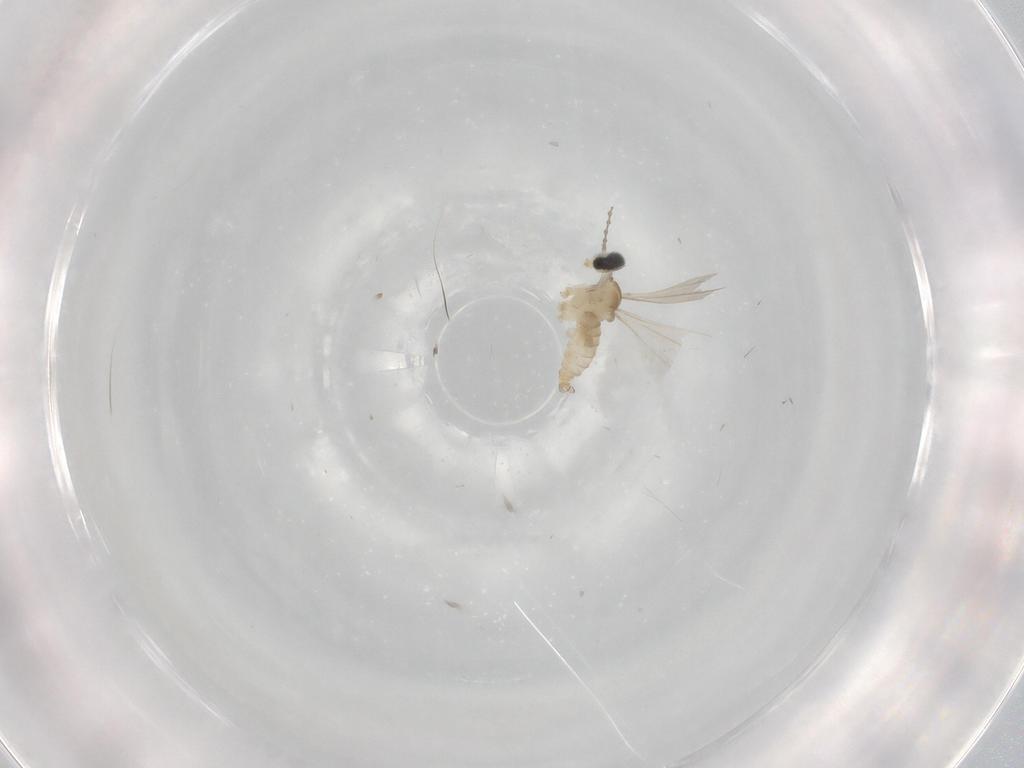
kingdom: Animalia
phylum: Arthropoda
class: Insecta
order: Diptera
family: Cecidomyiidae
